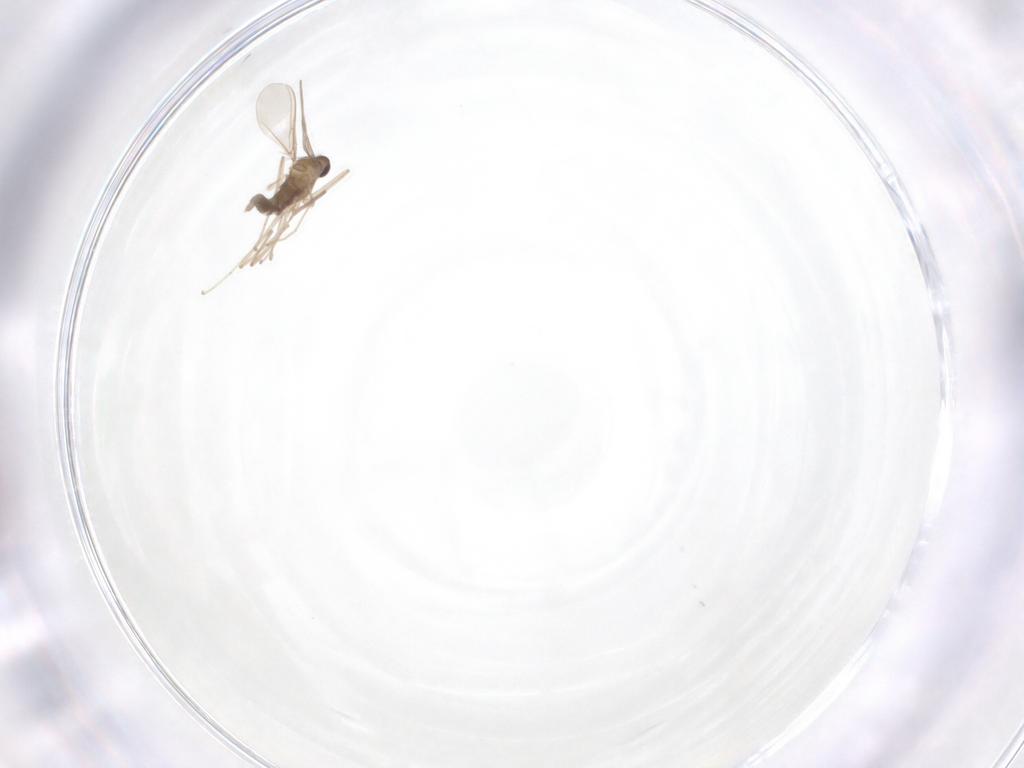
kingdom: Animalia
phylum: Arthropoda
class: Insecta
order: Diptera
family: Cecidomyiidae
